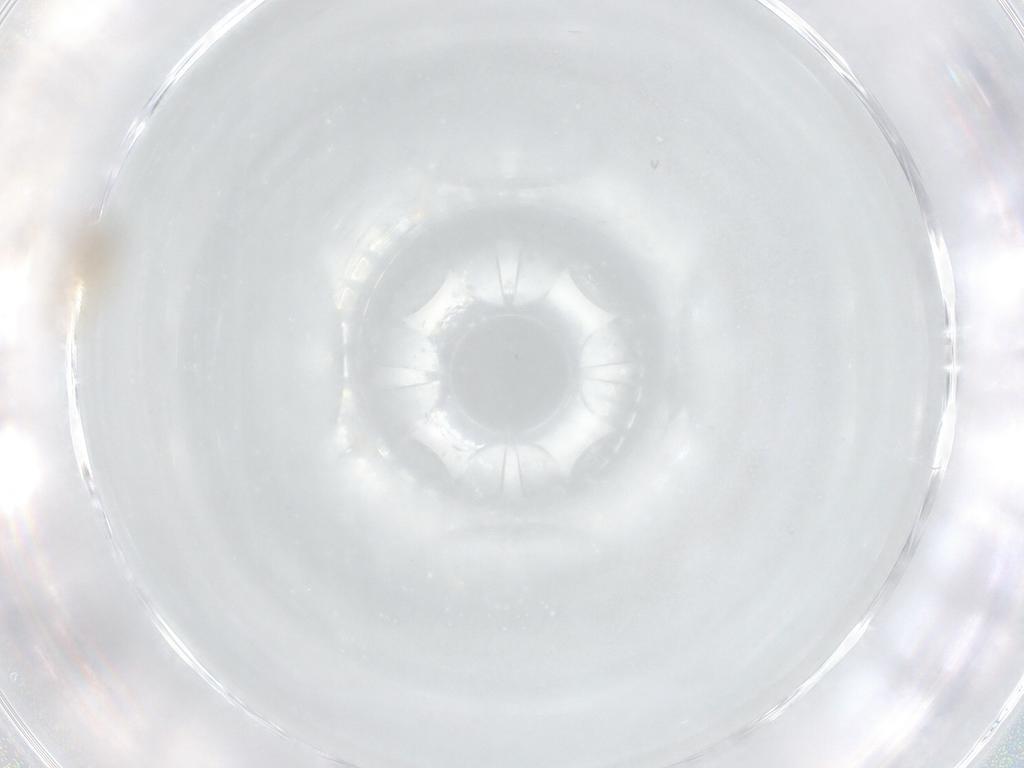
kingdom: Animalia
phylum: Arthropoda
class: Insecta
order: Diptera
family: Cecidomyiidae
